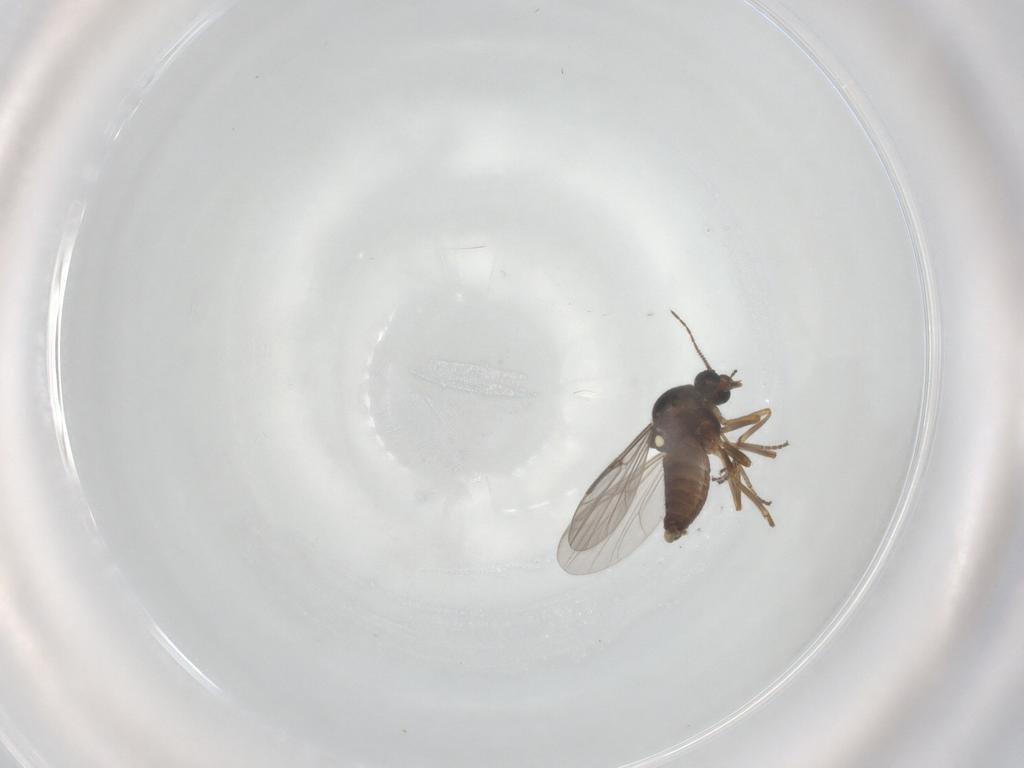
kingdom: Animalia
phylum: Arthropoda
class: Insecta
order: Diptera
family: Ceratopogonidae
